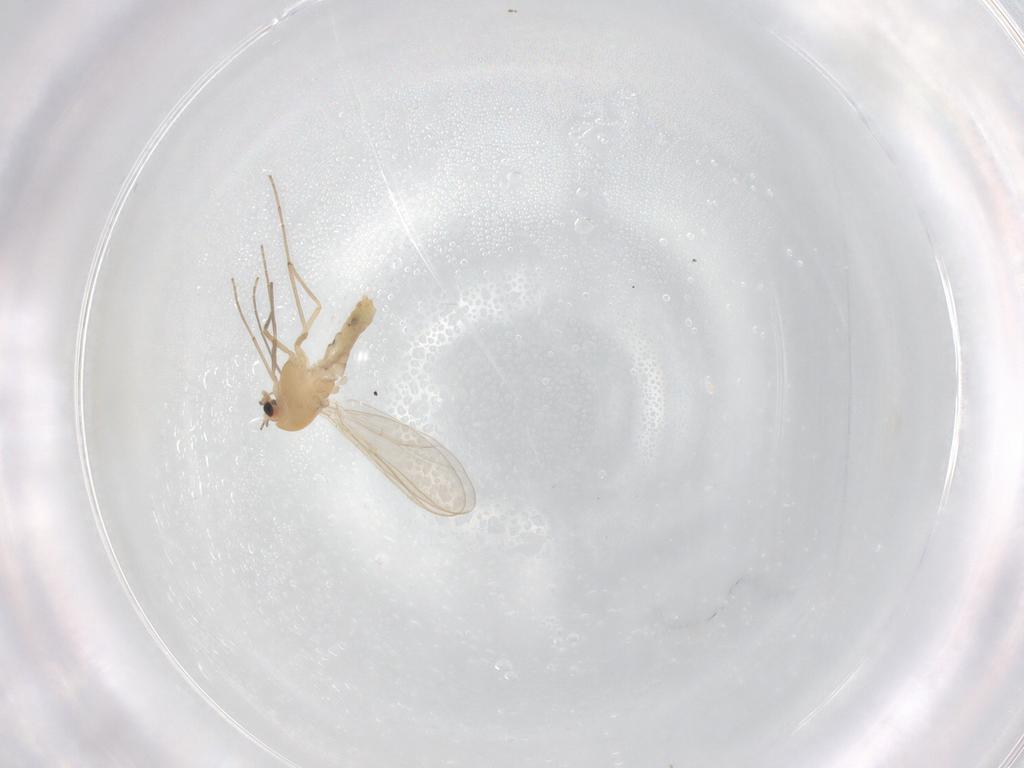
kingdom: Animalia
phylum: Arthropoda
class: Insecta
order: Diptera
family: Chironomidae
